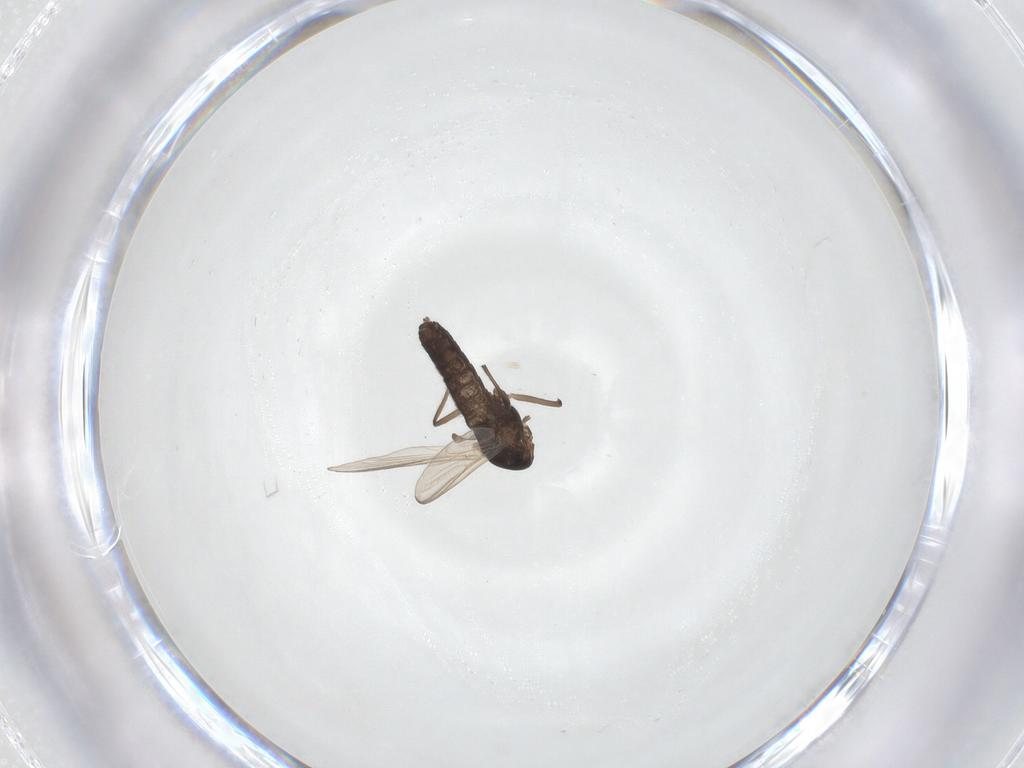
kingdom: Animalia
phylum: Arthropoda
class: Insecta
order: Diptera
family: Chironomidae
